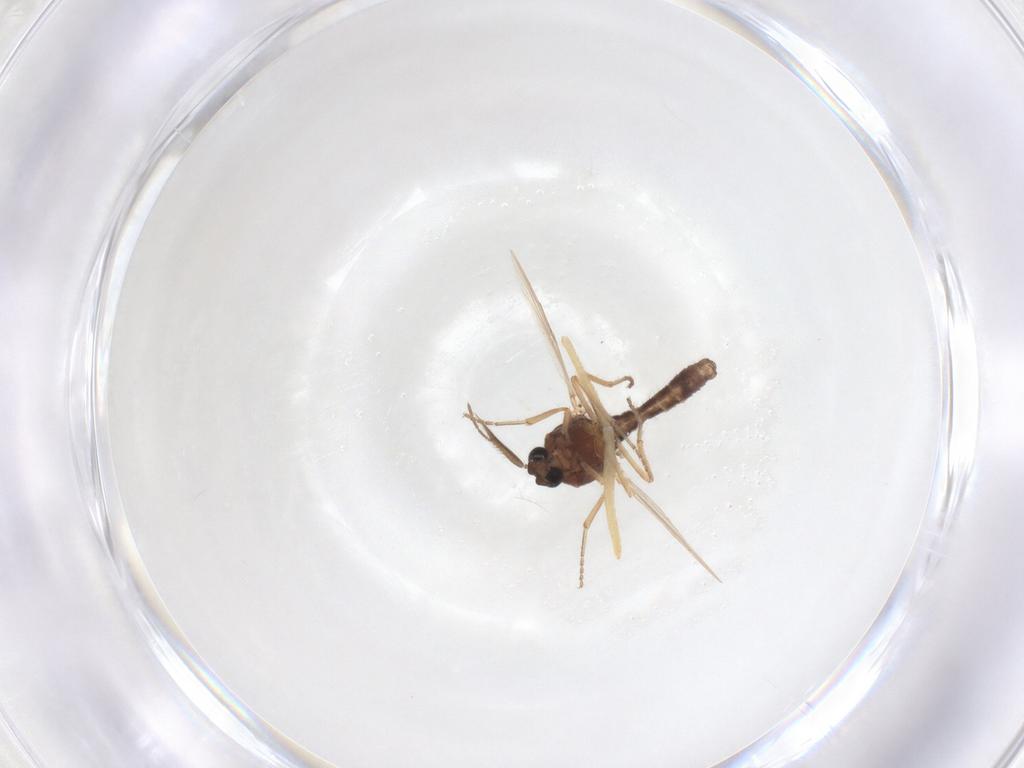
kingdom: Animalia
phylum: Arthropoda
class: Insecta
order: Diptera
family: Ceratopogonidae
